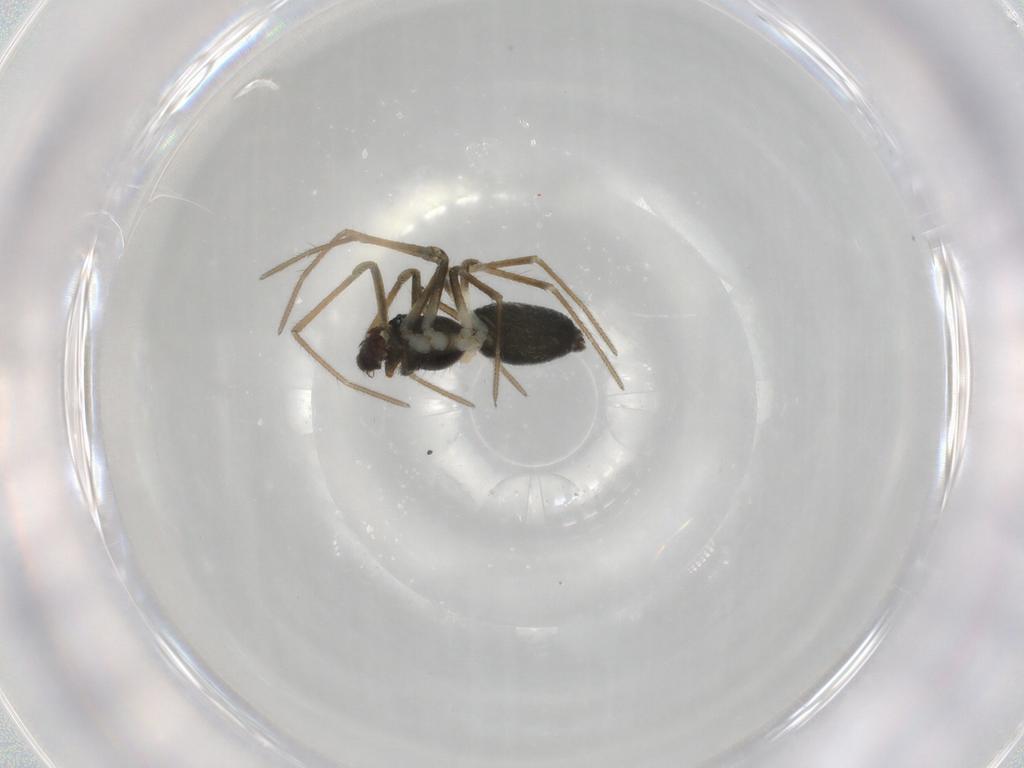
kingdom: Animalia
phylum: Arthropoda
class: Arachnida
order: Araneae
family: Linyphiidae
